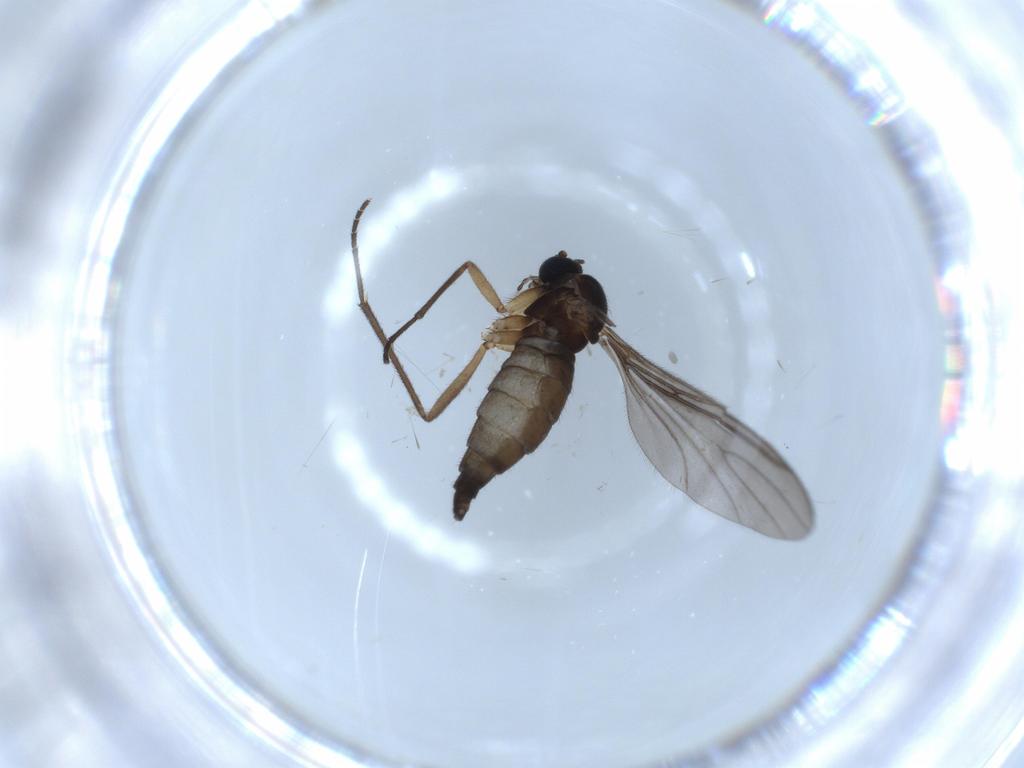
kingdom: Animalia
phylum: Arthropoda
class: Insecta
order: Diptera
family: Sciaridae
